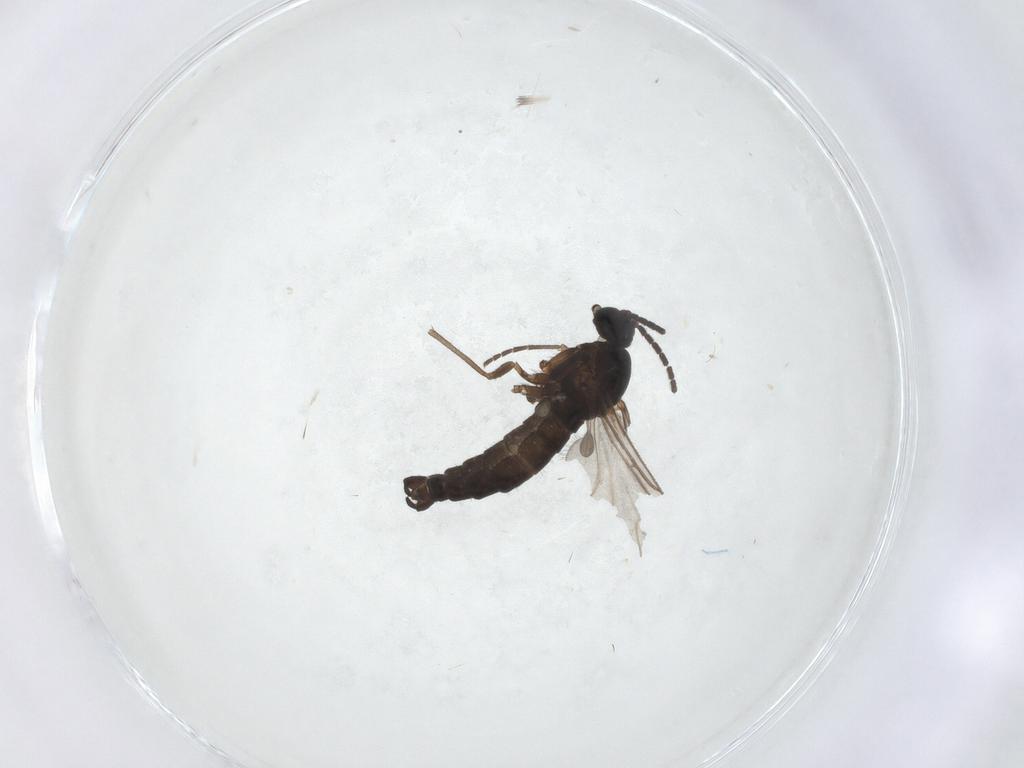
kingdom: Animalia
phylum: Arthropoda
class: Insecta
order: Diptera
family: Sciaridae
